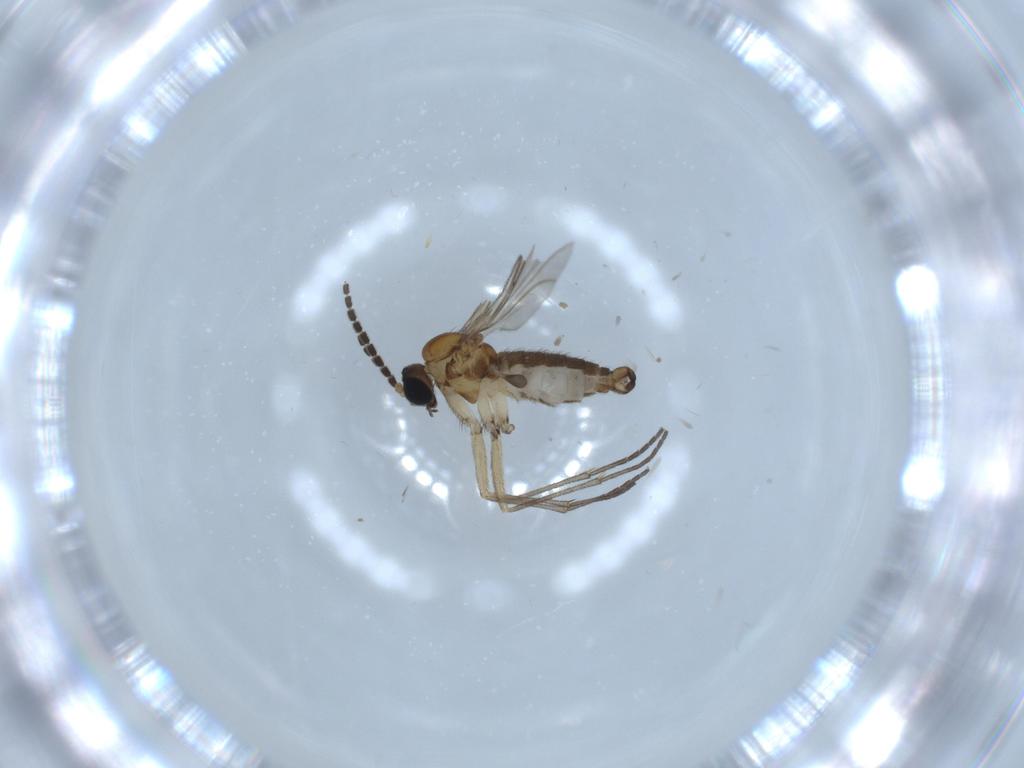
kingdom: Animalia
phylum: Arthropoda
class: Insecta
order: Diptera
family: Sciaridae
